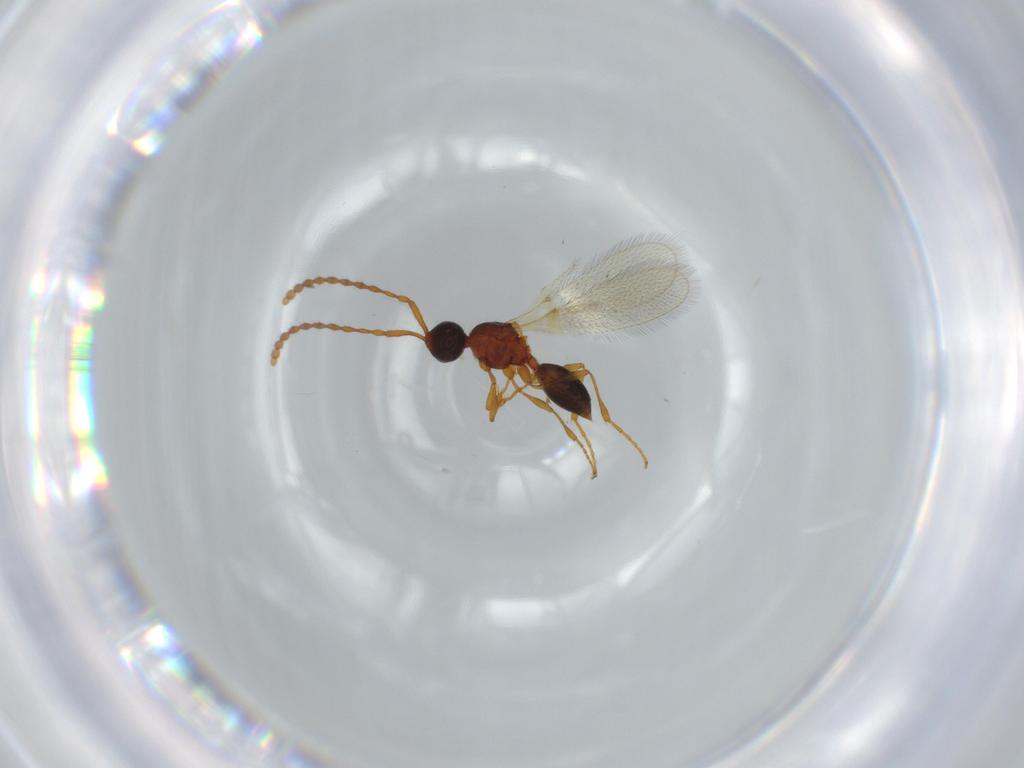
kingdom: Animalia
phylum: Arthropoda
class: Insecta
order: Hymenoptera
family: Diapriidae
